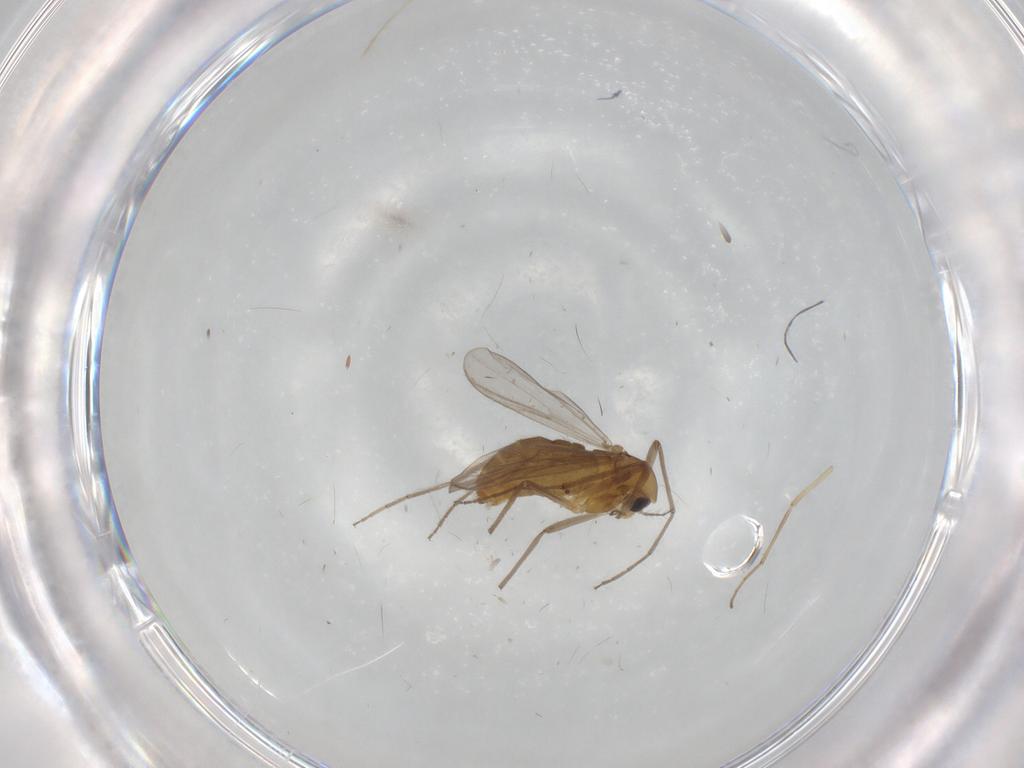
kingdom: Animalia
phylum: Arthropoda
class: Insecta
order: Diptera
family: Chironomidae
